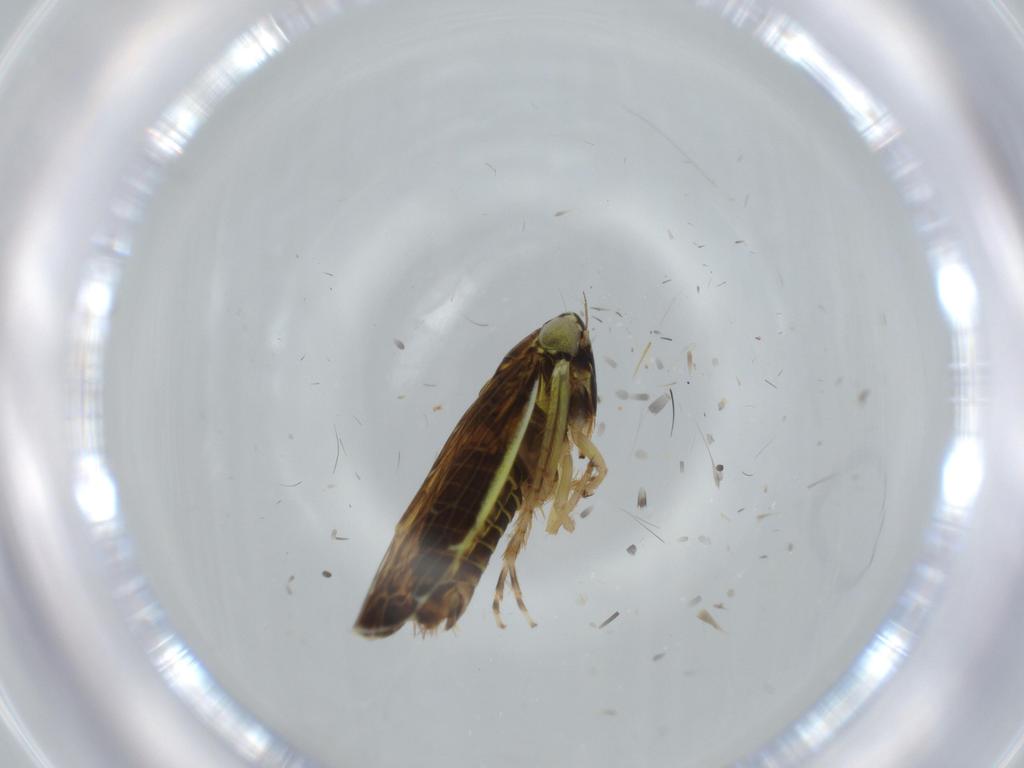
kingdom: Animalia
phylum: Arthropoda
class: Insecta
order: Hemiptera
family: Cicadellidae
